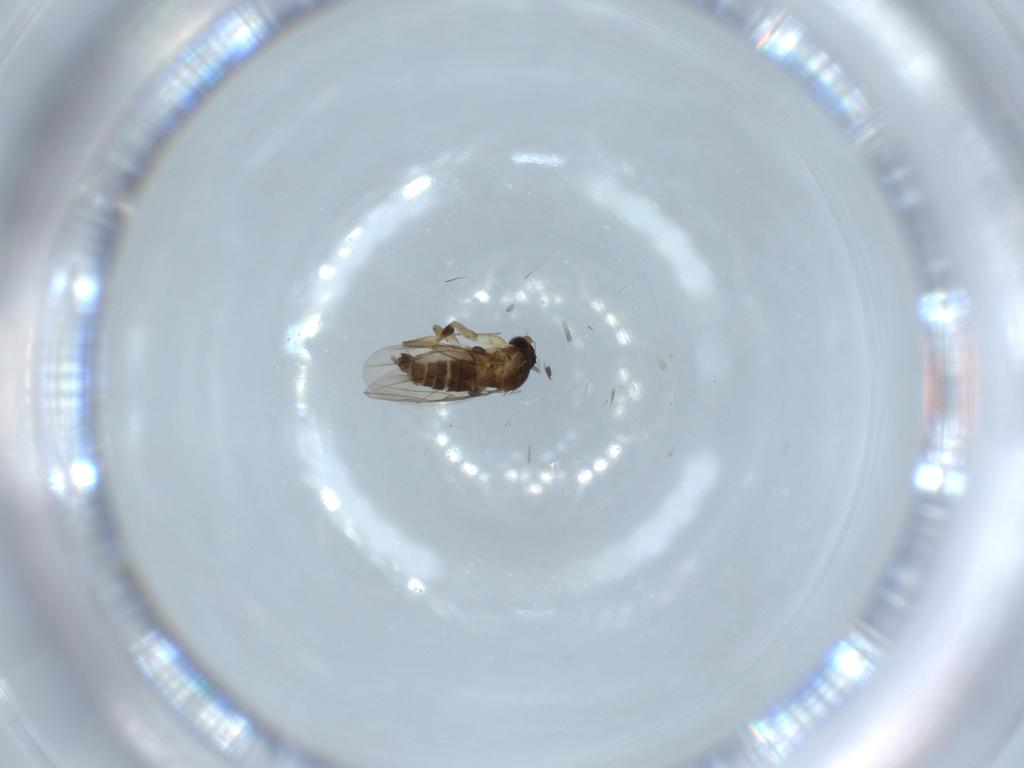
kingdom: Animalia
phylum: Arthropoda
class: Insecta
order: Diptera
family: Phoridae
